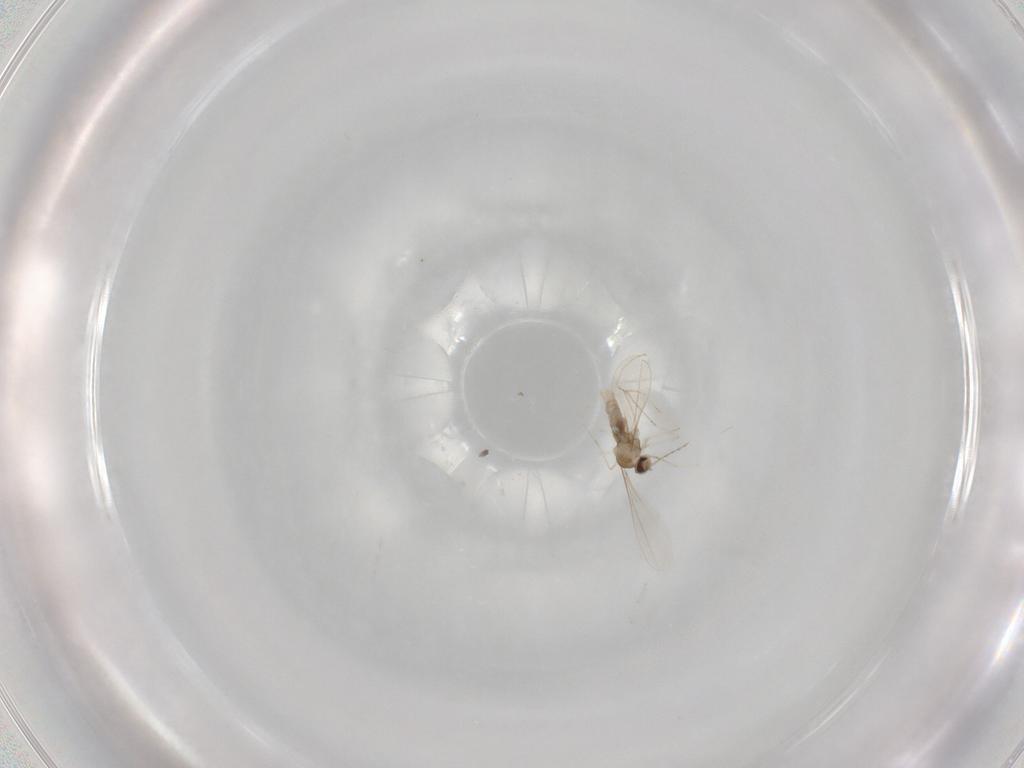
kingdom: Animalia
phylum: Arthropoda
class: Insecta
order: Diptera
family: Cecidomyiidae
